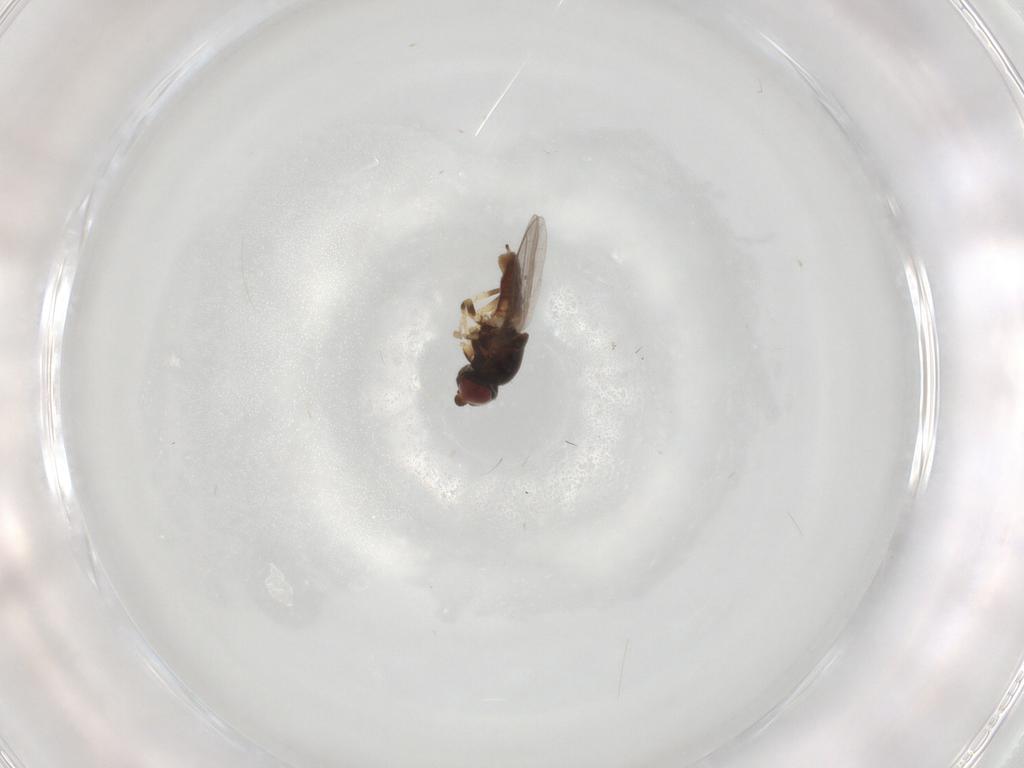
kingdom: Animalia
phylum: Arthropoda
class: Insecta
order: Diptera
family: Chloropidae
